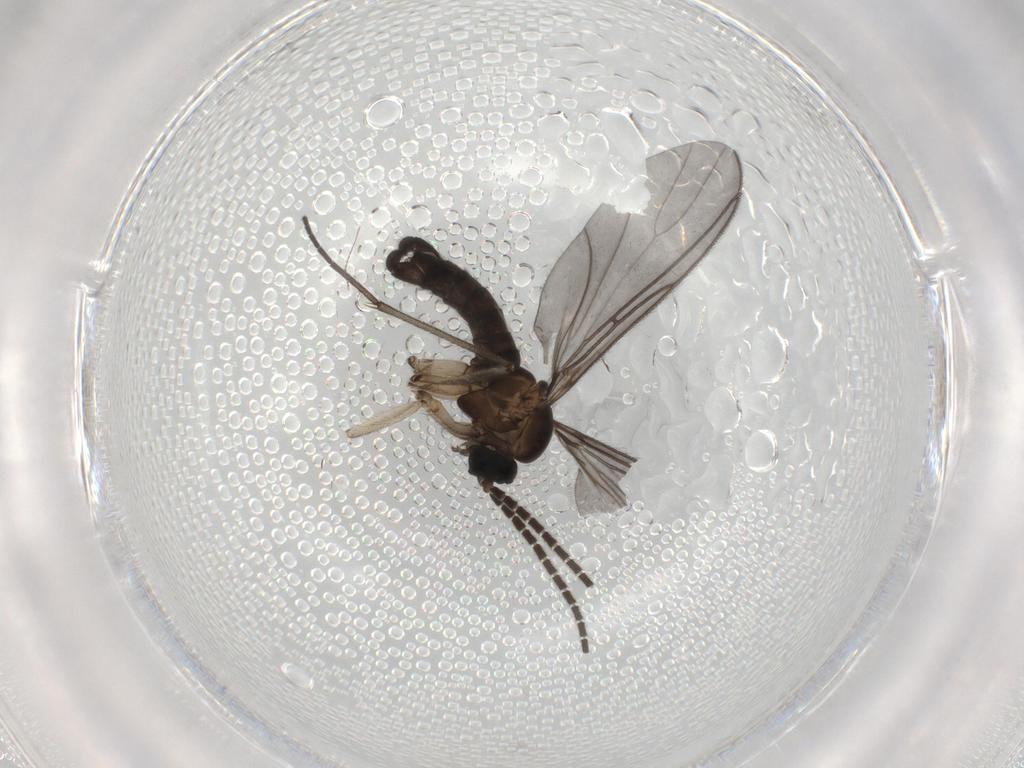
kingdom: Animalia
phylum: Arthropoda
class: Insecta
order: Diptera
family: Sciaridae
